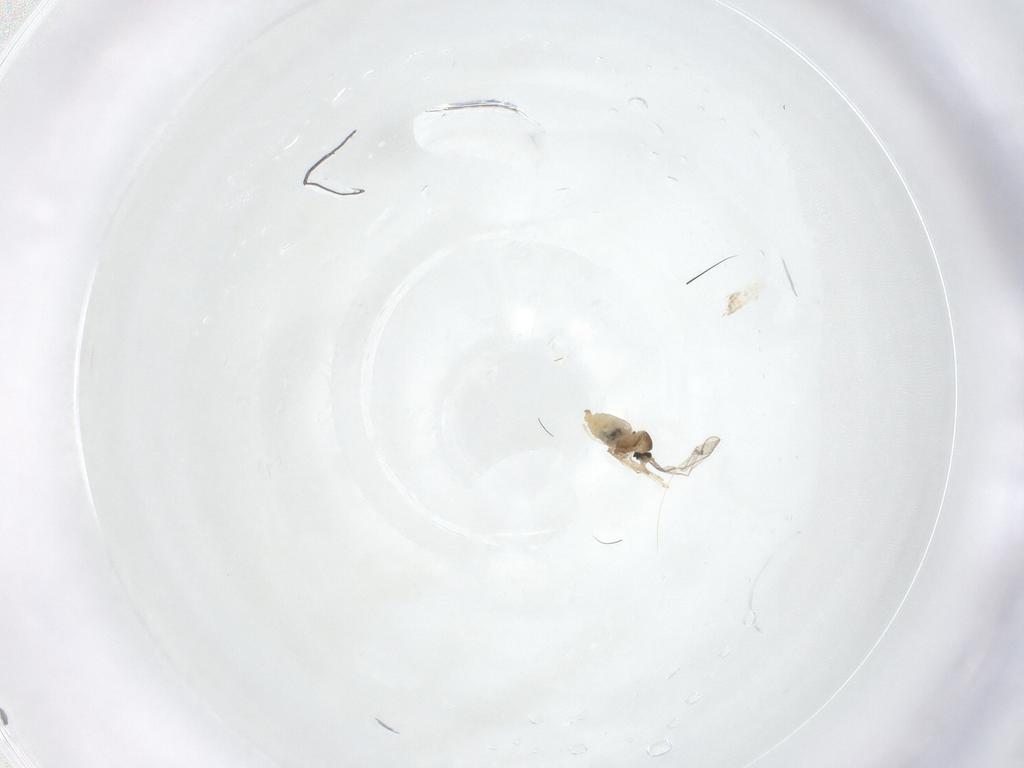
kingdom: Animalia
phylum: Arthropoda
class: Insecta
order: Diptera
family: Cecidomyiidae
